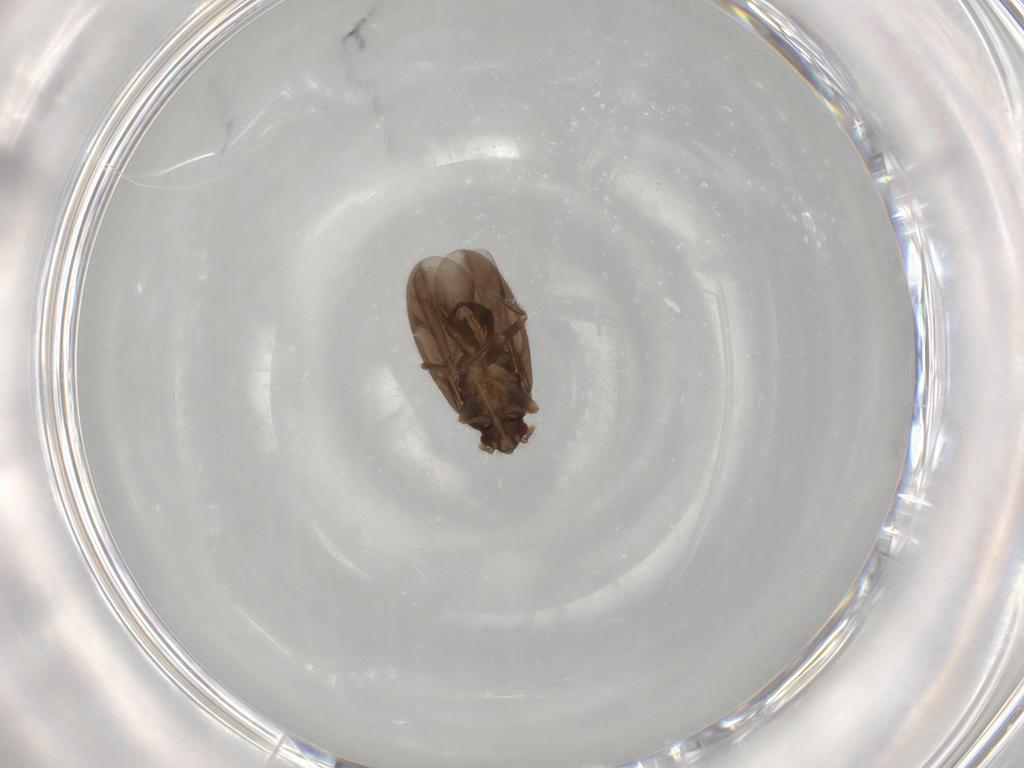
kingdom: Animalia
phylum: Arthropoda
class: Insecta
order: Hemiptera
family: Ceratocombidae
